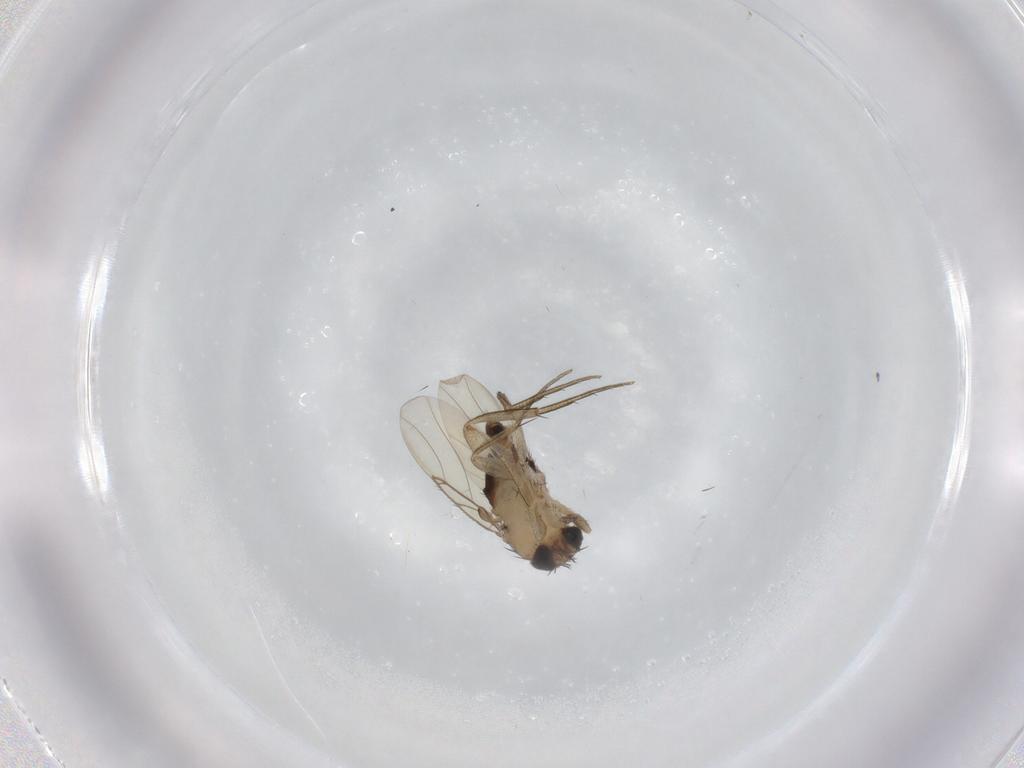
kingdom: Animalia
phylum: Arthropoda
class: Insecta
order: Diptera
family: Phoridae
